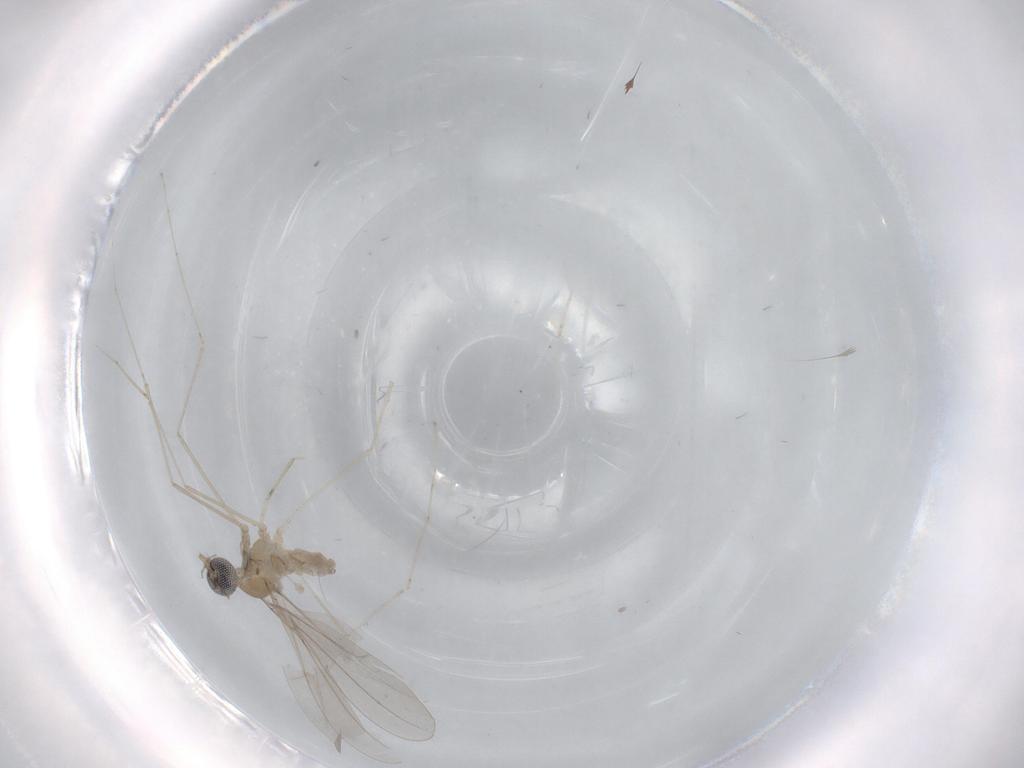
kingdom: Animalia
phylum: Arthropoda
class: Insecta
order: Diptera
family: Cecidomyiidae
